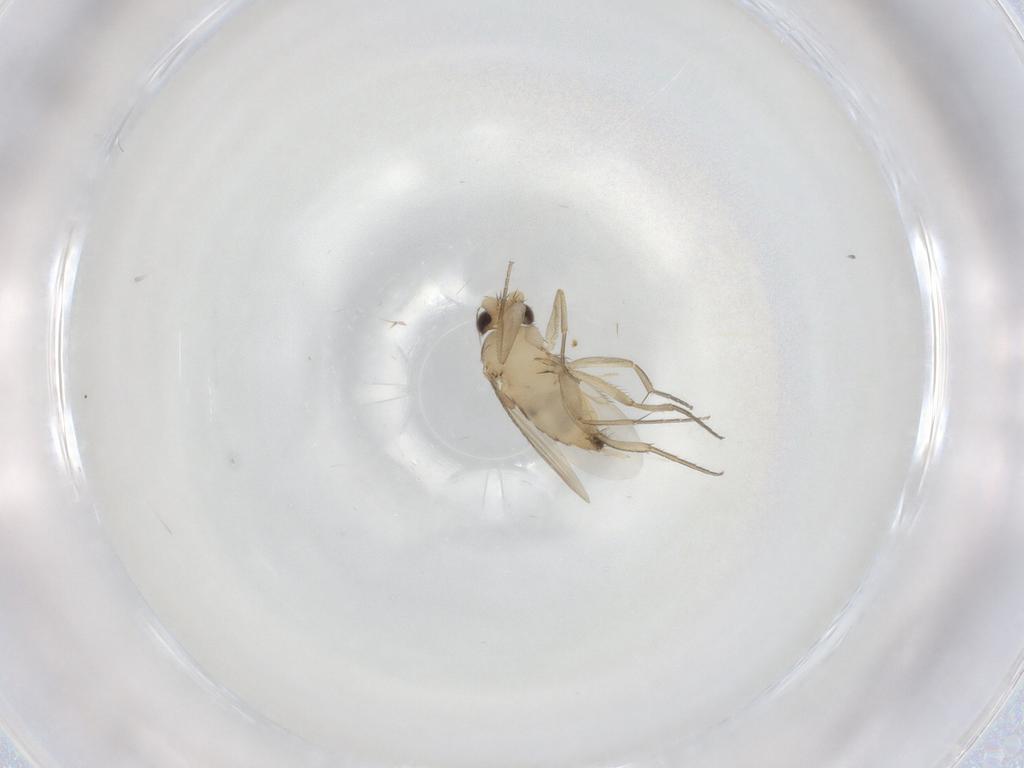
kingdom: Animalia
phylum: Arthropoda
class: Insecta
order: Diptera
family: Phoridae
